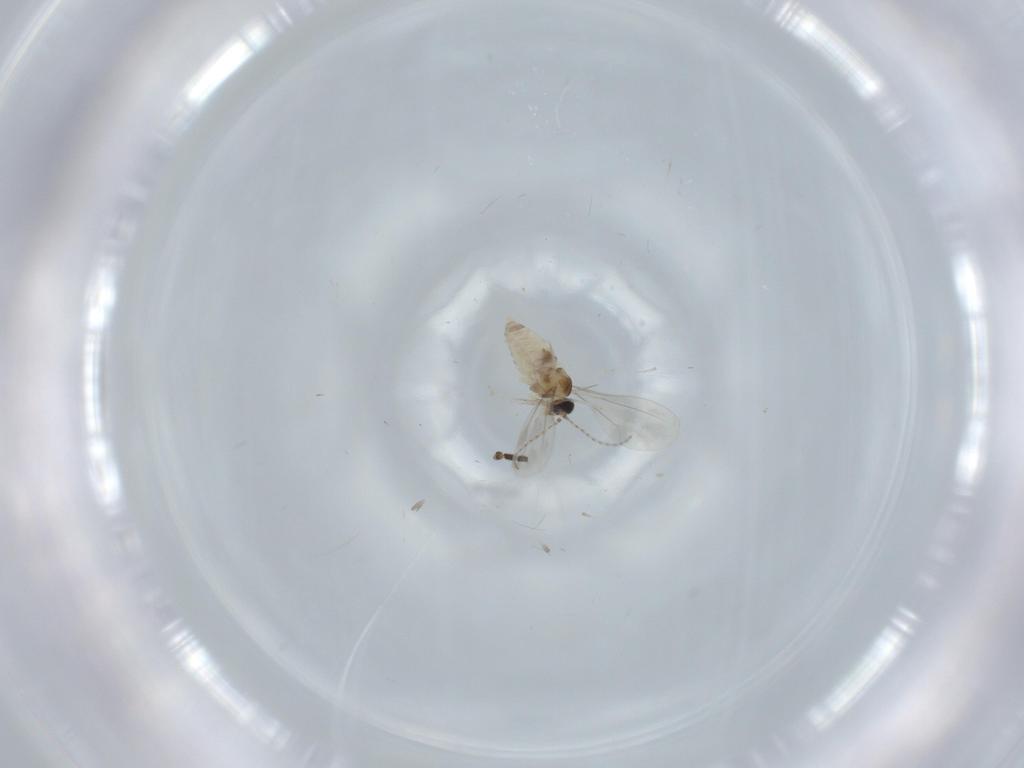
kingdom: Animalia
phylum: Arthropoda
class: Insecta
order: Diptera
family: Cecidomyiidae
